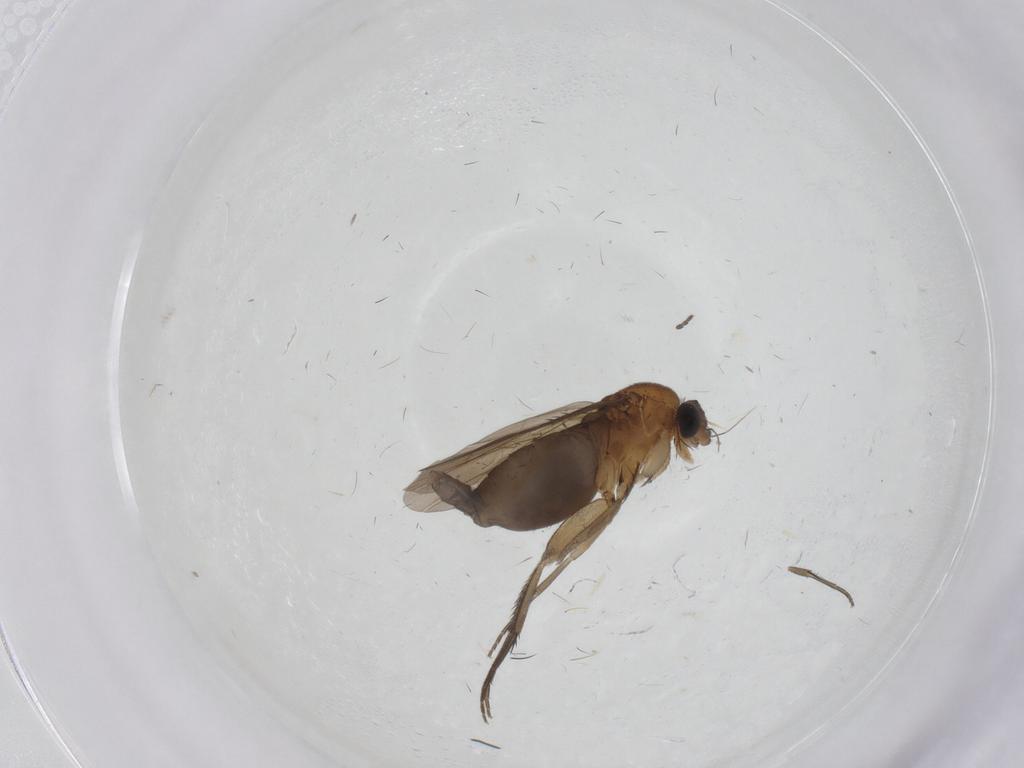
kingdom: Animalia
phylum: Arthropoda
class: Insecta
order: Diptera
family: Phoridae
